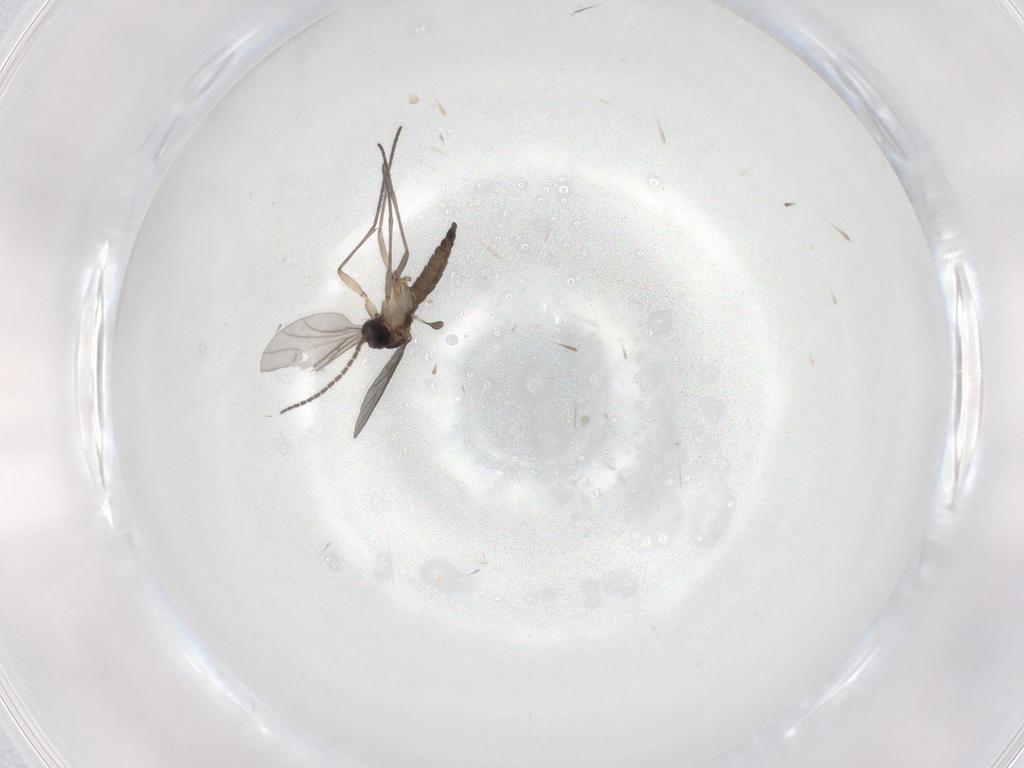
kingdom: Animalia
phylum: Arthropoda
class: Insecta
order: Diptera
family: Sciaridae
